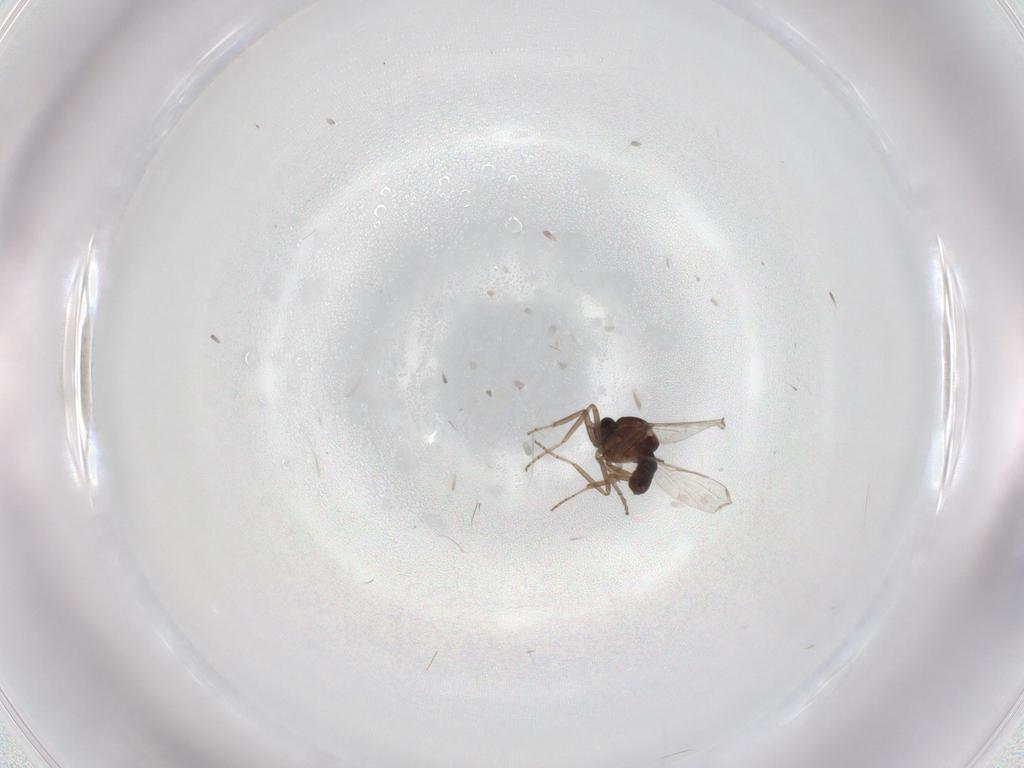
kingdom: Animalia
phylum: Arthropoda
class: Insecta
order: Diptera
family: Ceratopogonidae
